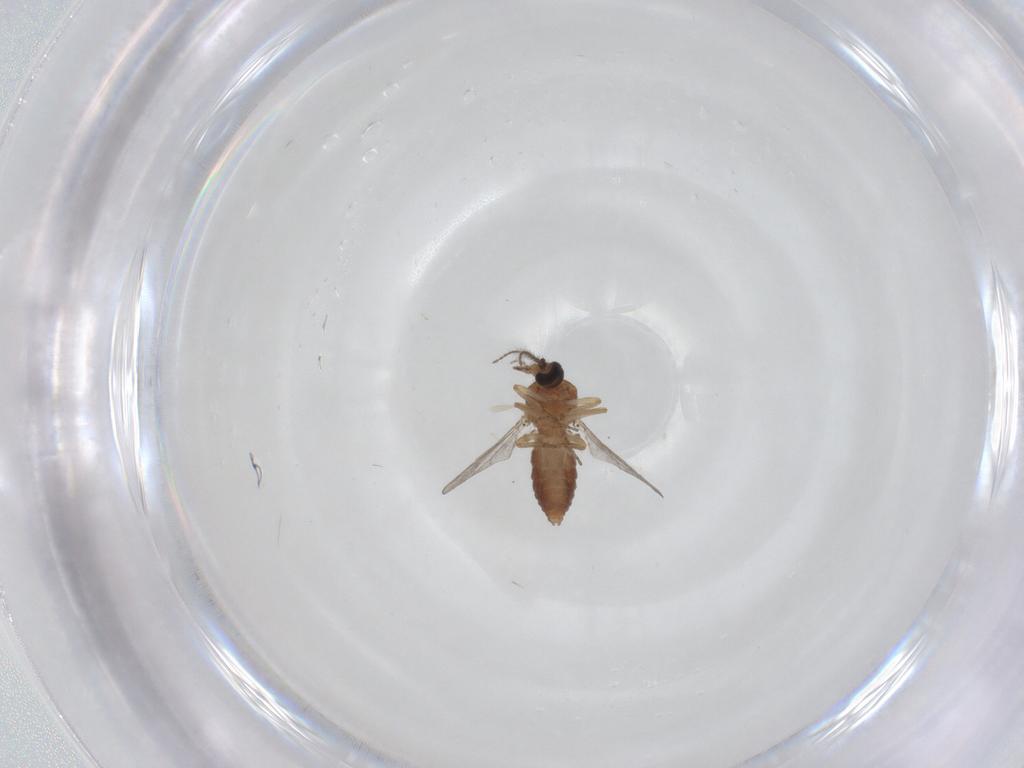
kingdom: Animalia
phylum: Arthropoda
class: Insecta
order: Diptera
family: Ceratopogonidae
